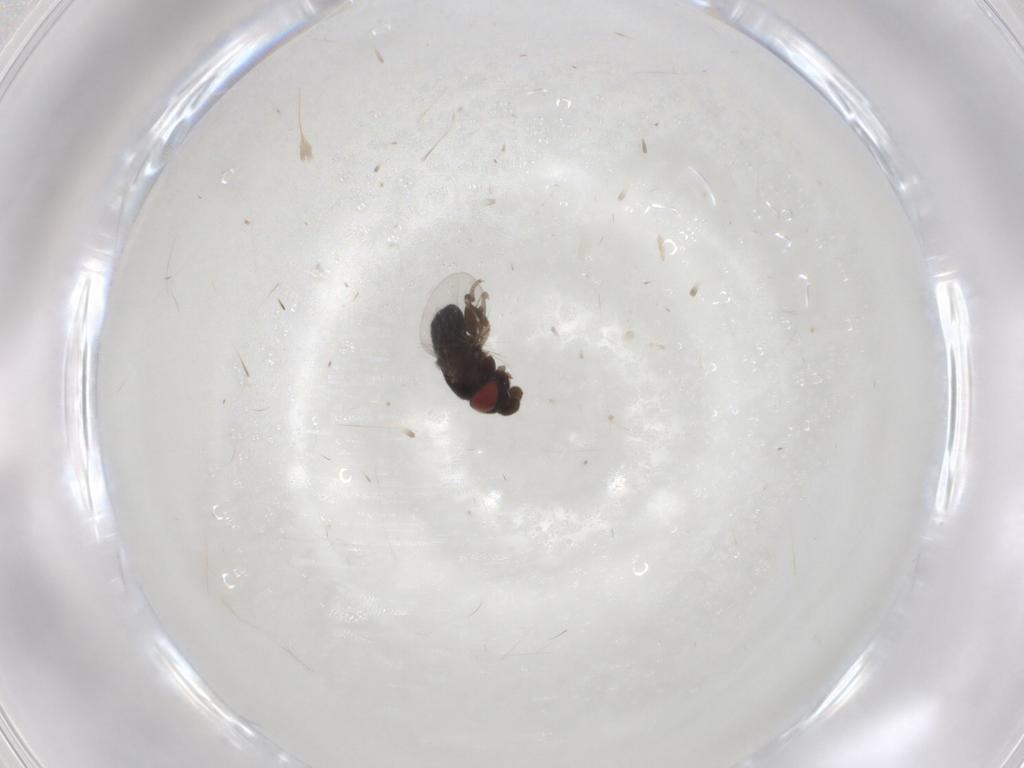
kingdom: Animalia
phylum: Arthropoda
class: Insecta
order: Diptera
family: Cryptochetidae
